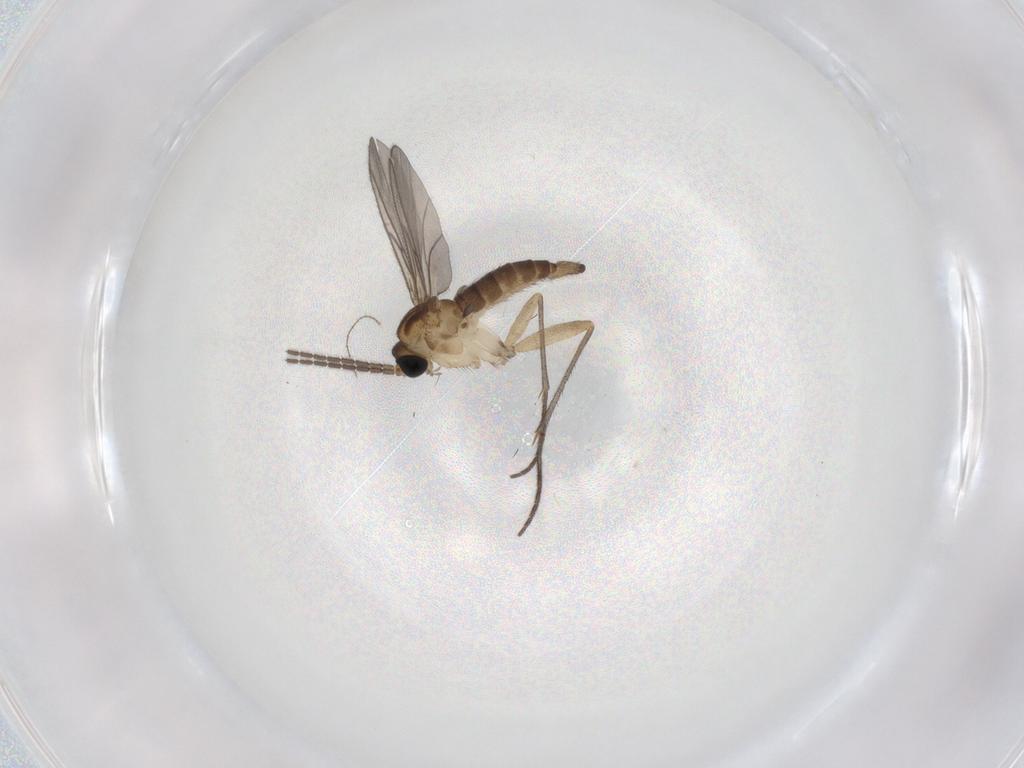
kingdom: Animalia
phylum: Arthropoda
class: Insecta
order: Diptera
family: Sciaridae
